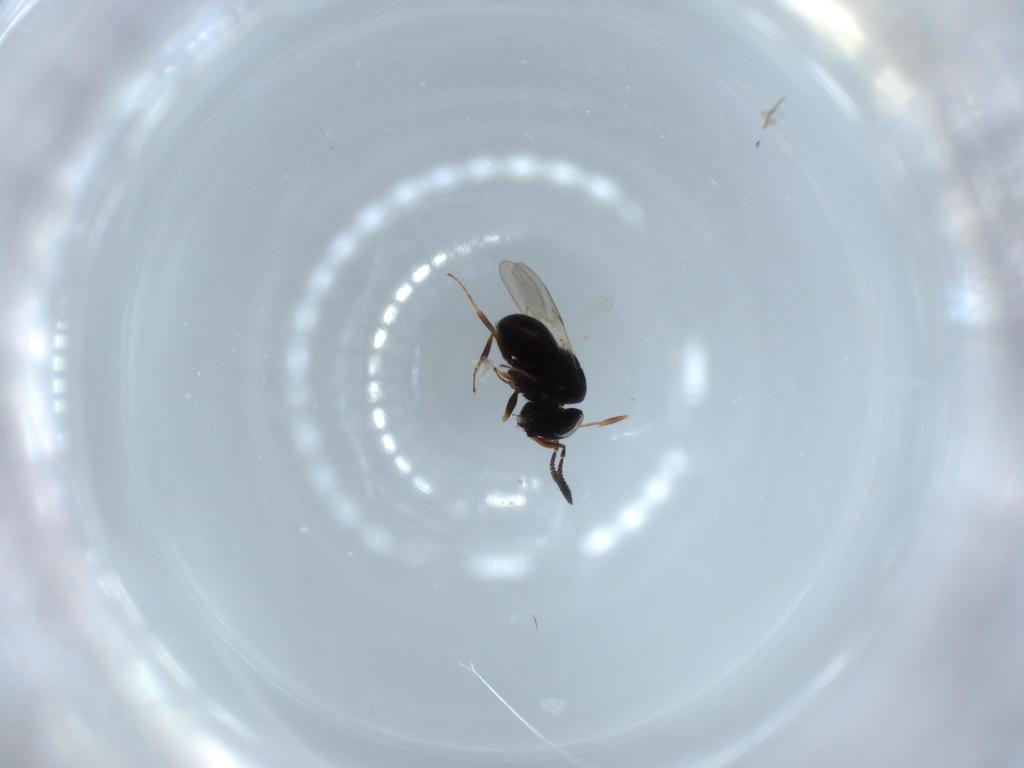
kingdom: Animalia
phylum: Arthropoda
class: Insecta
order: Hymenoptera
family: Scelionidae
